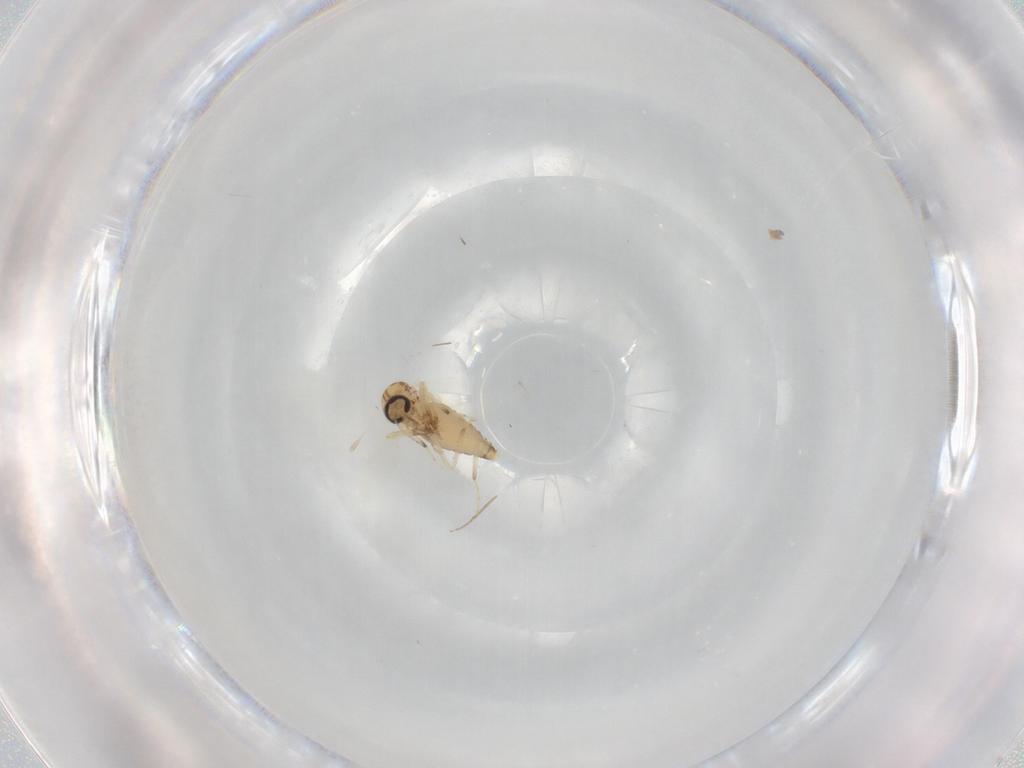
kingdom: Animalia
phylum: Arthropoda
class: Insecta
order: Diptera
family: Ceratopogonidae
